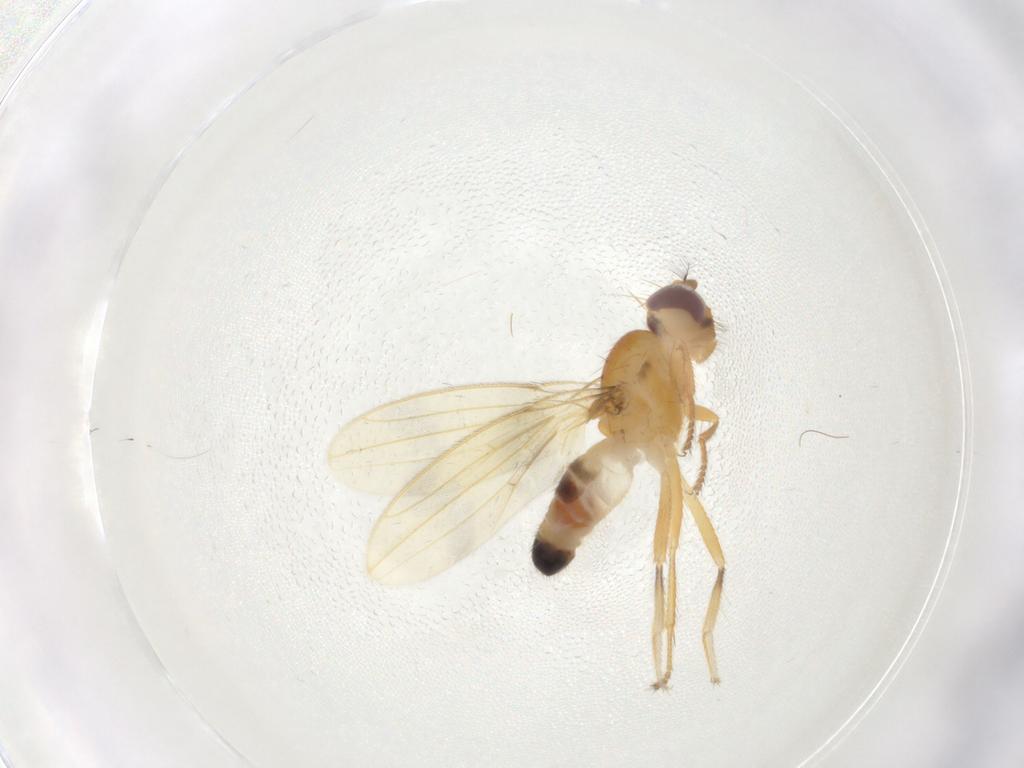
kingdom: Animalia
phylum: Arthropoda
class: Insecta
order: Diptera
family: Periscelididae
